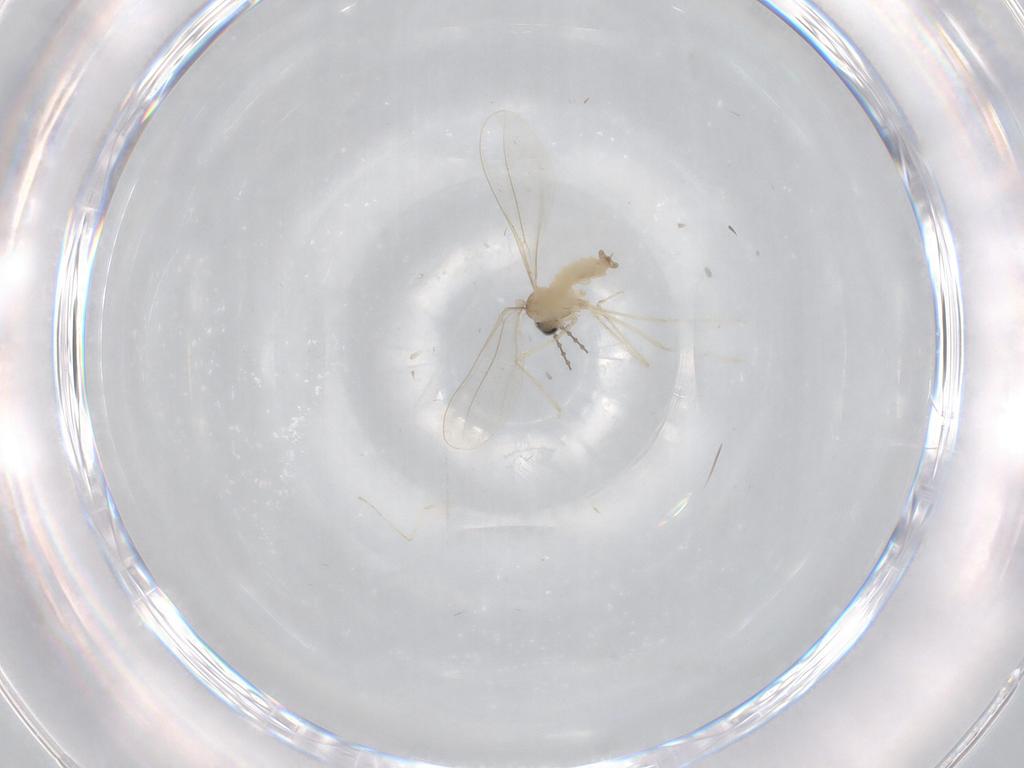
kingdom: Animalia
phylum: Arthropoda
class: Insecta
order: Diptera
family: Cecidomyiidae
